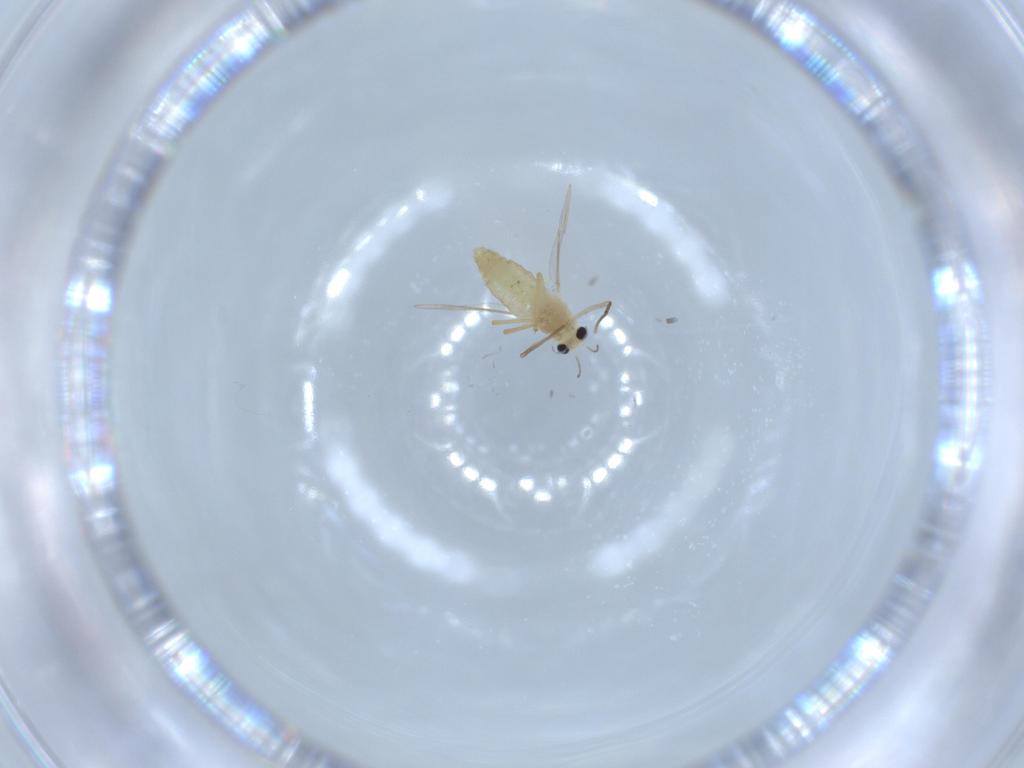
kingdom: Animalia
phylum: Arthropoda
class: Insecta
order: Diptera
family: Chironomidae
